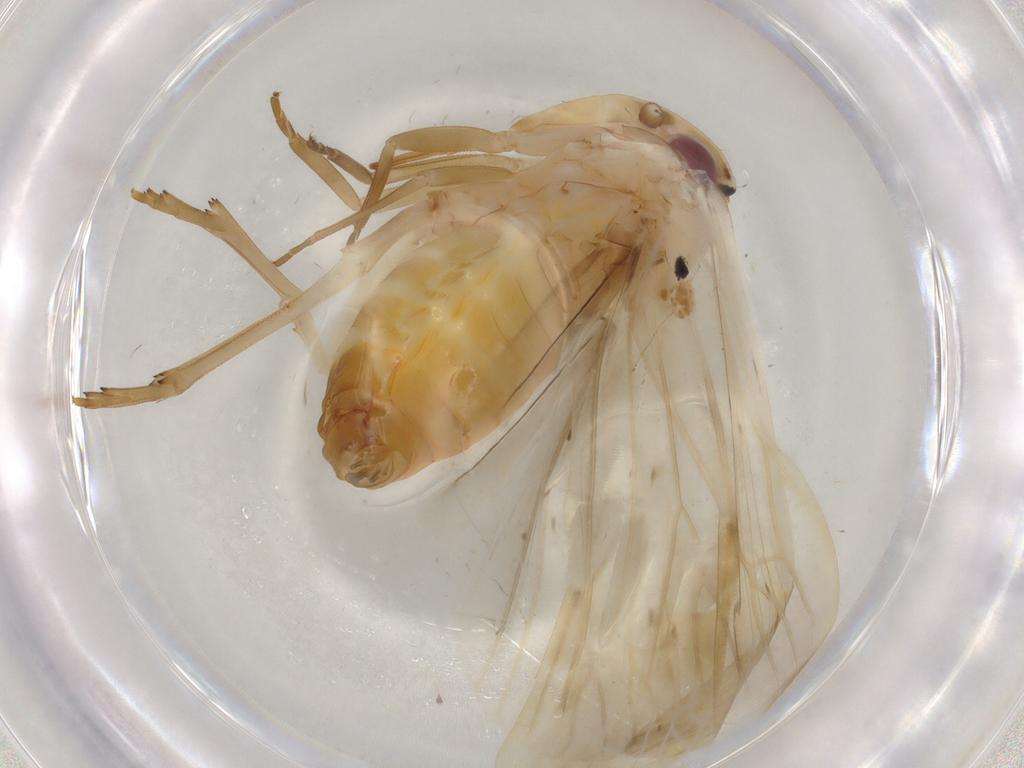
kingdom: Animalia
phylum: Arthropoda
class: Insecta
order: Hemiptera
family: Achilidae
